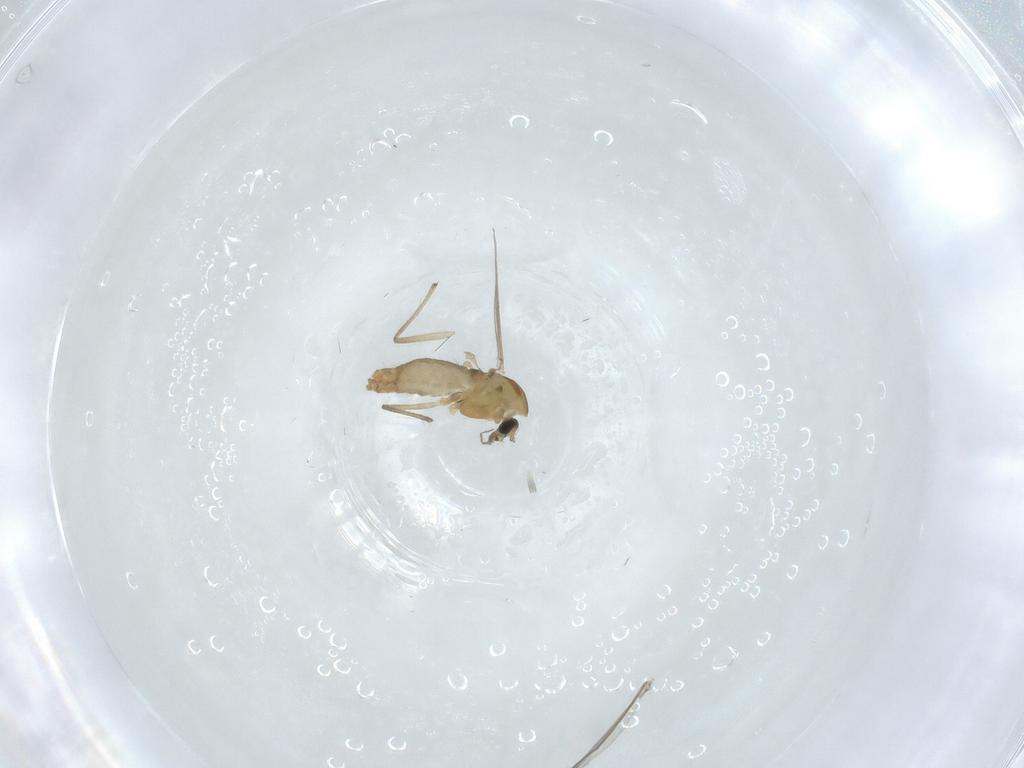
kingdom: Animalia
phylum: Arthropoda
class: Insecta
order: Diptera
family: Chironomidae
